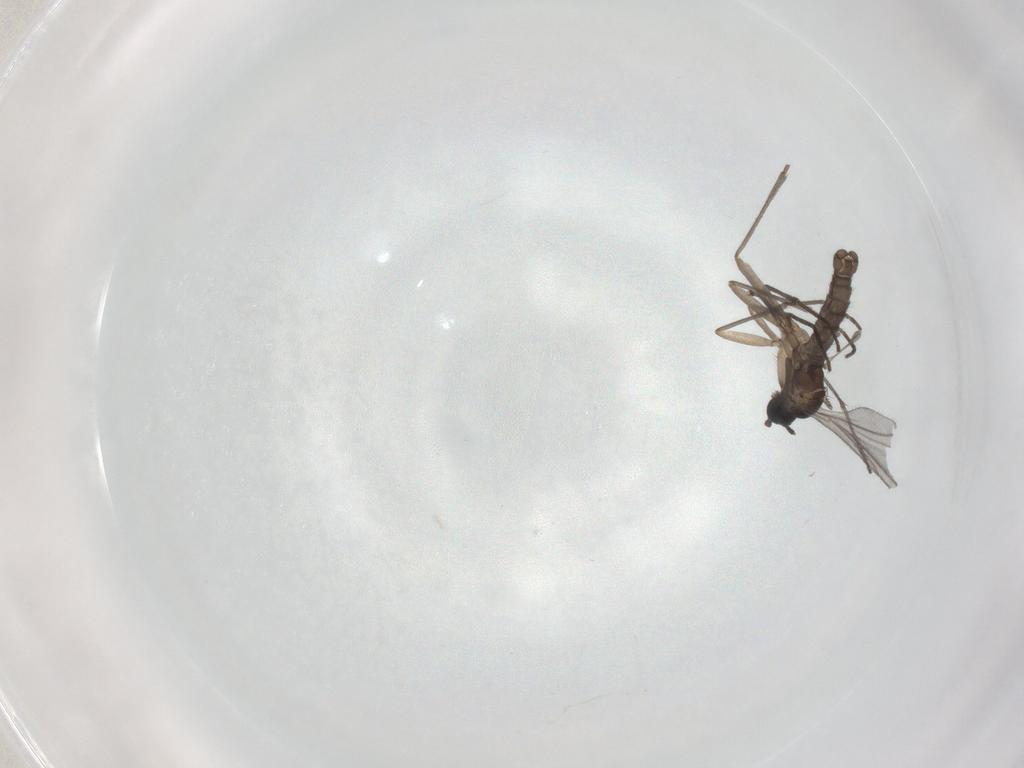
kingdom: Animalia
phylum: Arthropoda
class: Insecta
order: Diptera
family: Sciaridae
